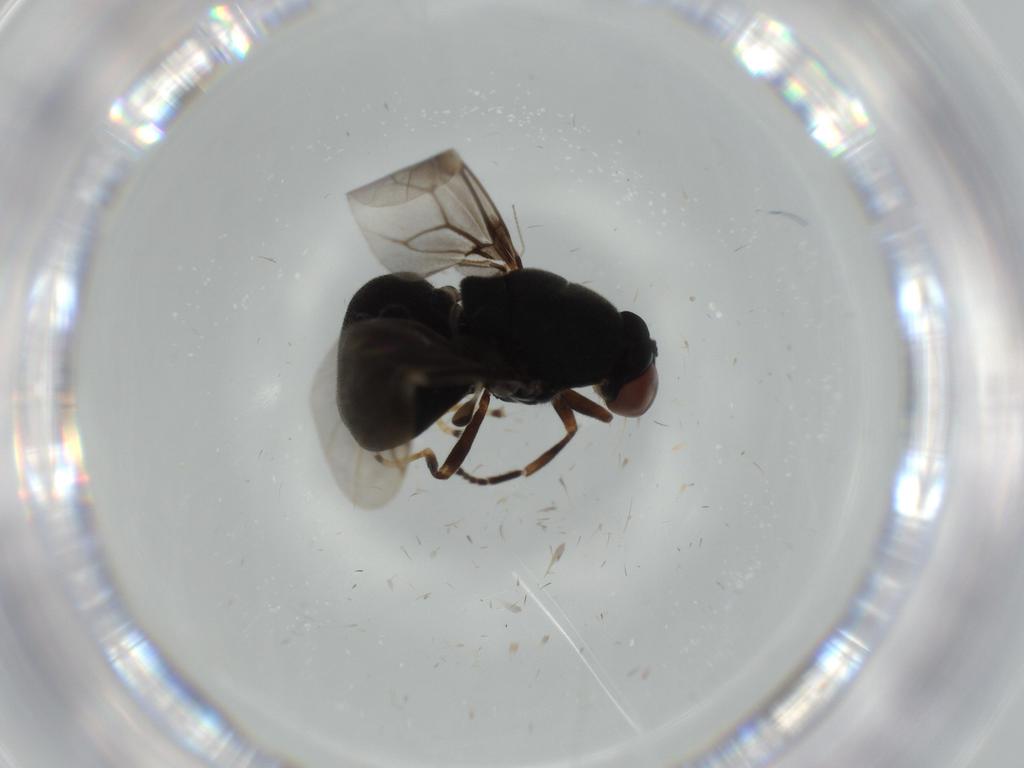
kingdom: Animalia
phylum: Arthropoda
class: Insecta
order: Diptera
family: Stratiomyidae
